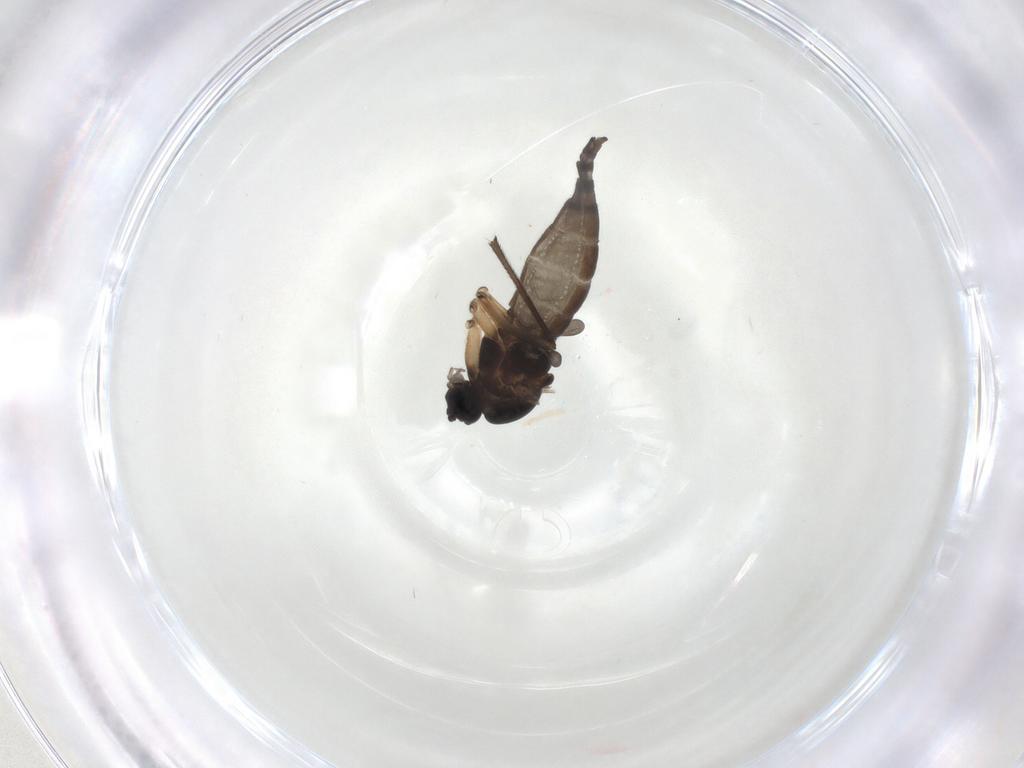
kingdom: Animalia
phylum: Arthropoda
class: Insecta
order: Diptera
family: Sciaridae
